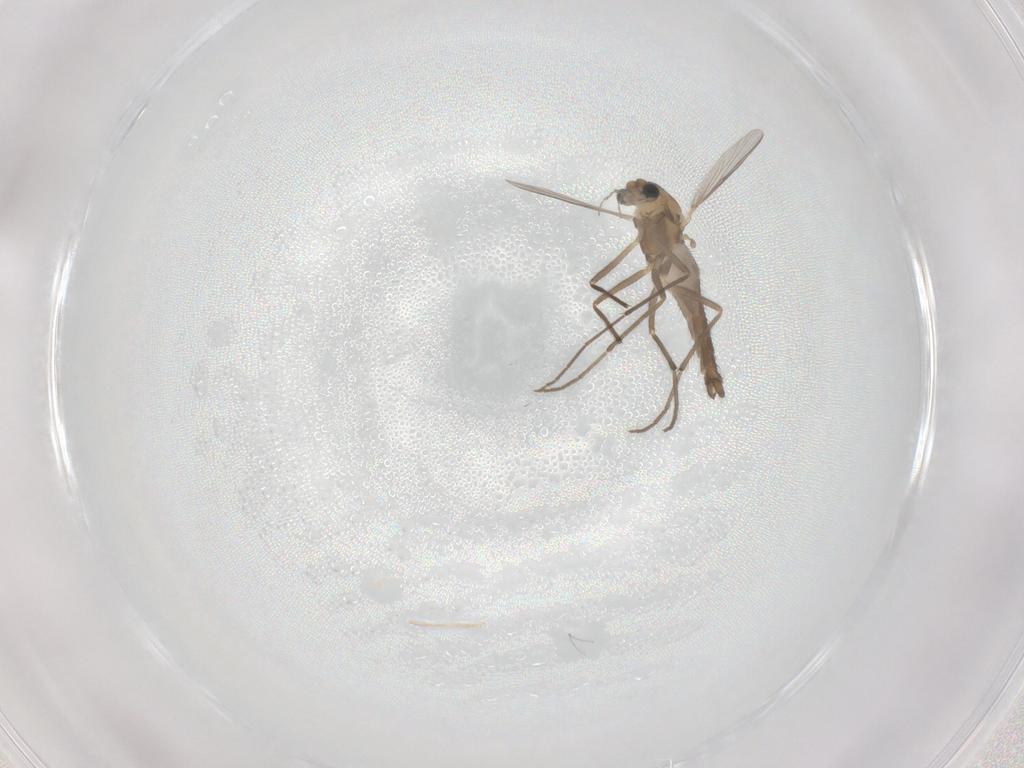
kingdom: Animalia
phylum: Arthropoda
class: Insecta
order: Diptera
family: Chironomidae
